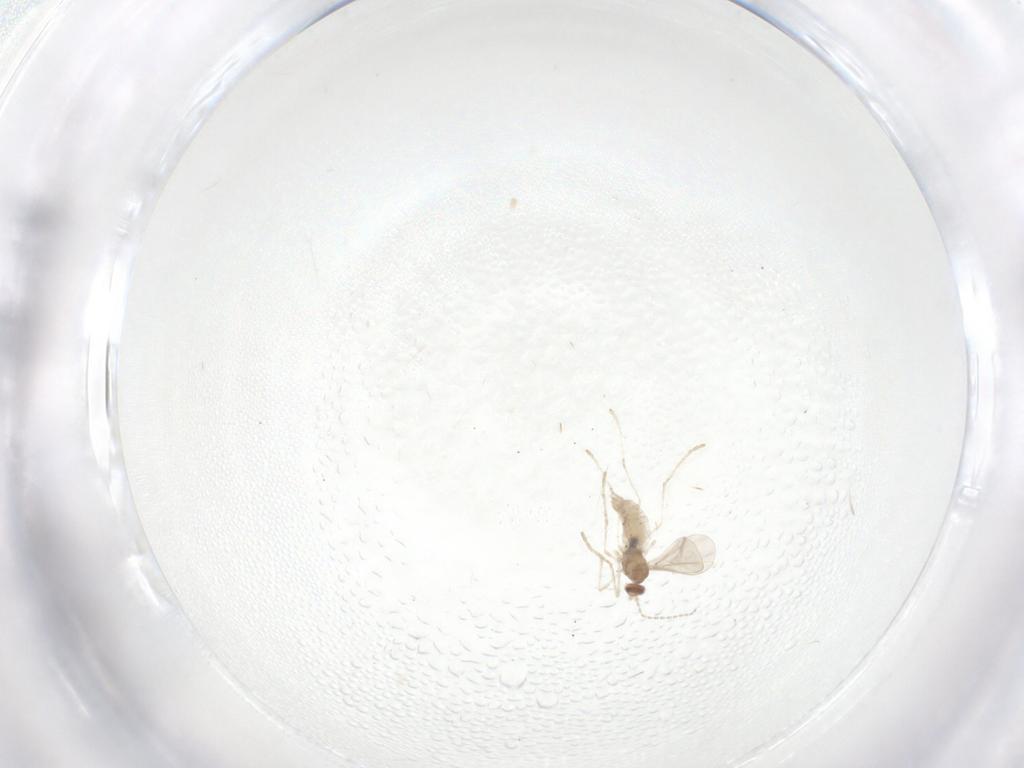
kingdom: Animalia
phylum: Arthropoda
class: Insecta
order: Diptera
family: Cecidomyiidae
